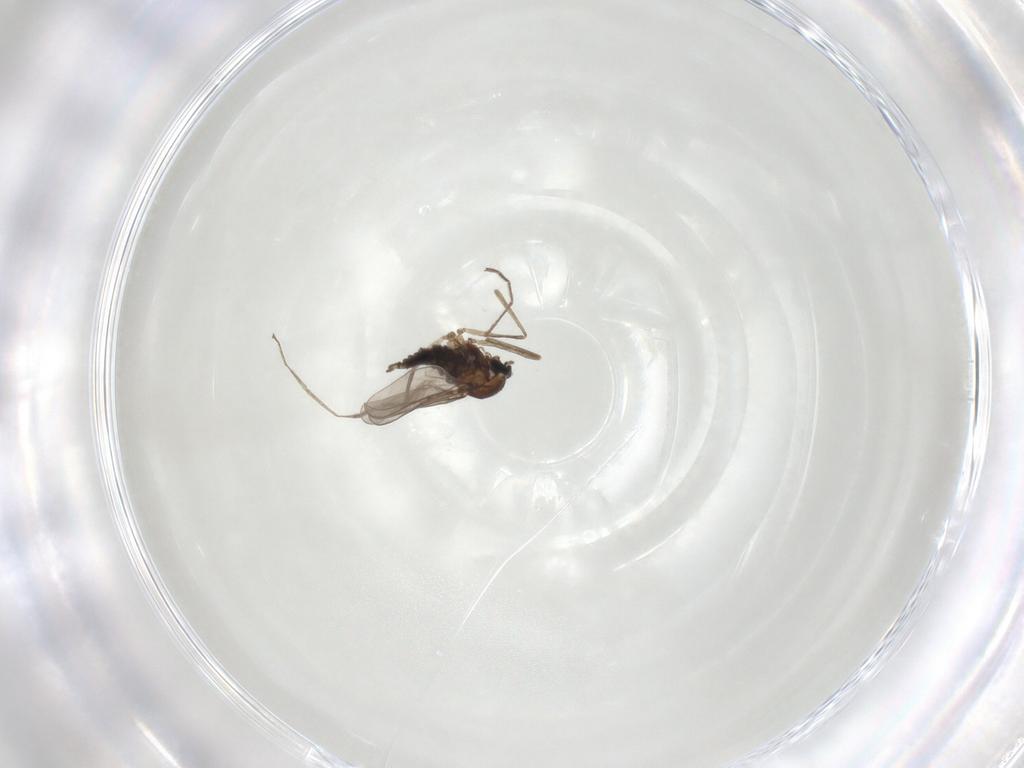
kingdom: Animalia
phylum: Arthropoda
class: Insecta
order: Diptera
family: Cecidomyiidae
